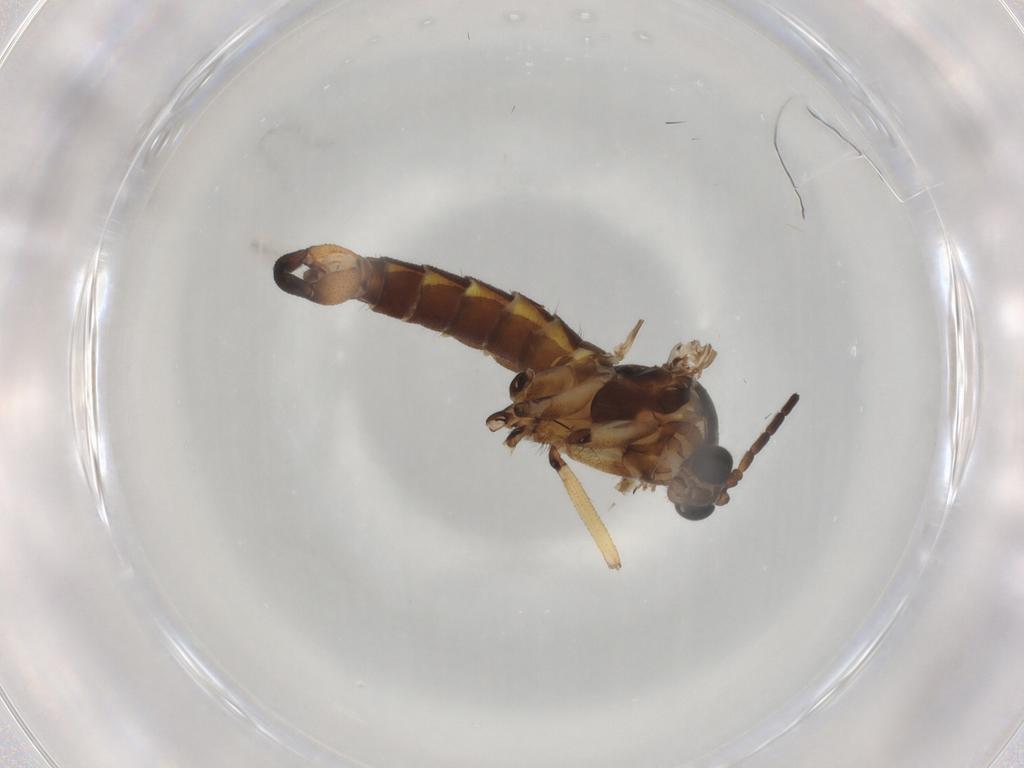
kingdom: Animalia
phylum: Arthropoda
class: Insecta
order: Diptera
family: Sciaridae
